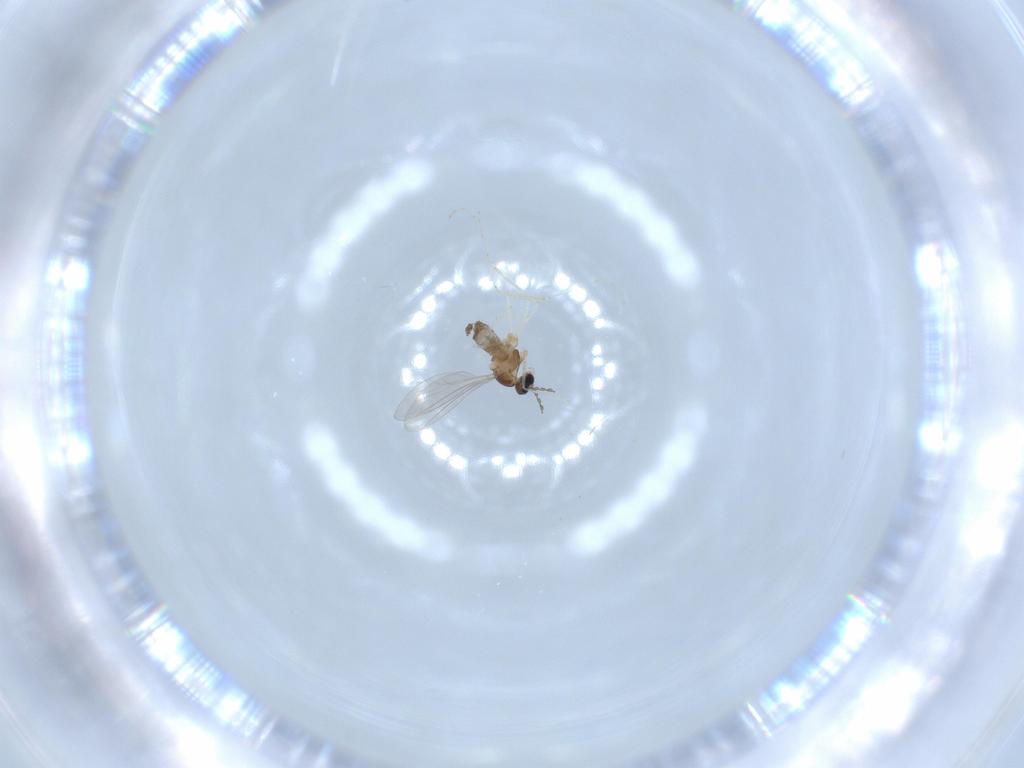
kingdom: Animalia
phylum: Arthropoda
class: Insecta
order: Diptera
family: Cecidomyiidae
